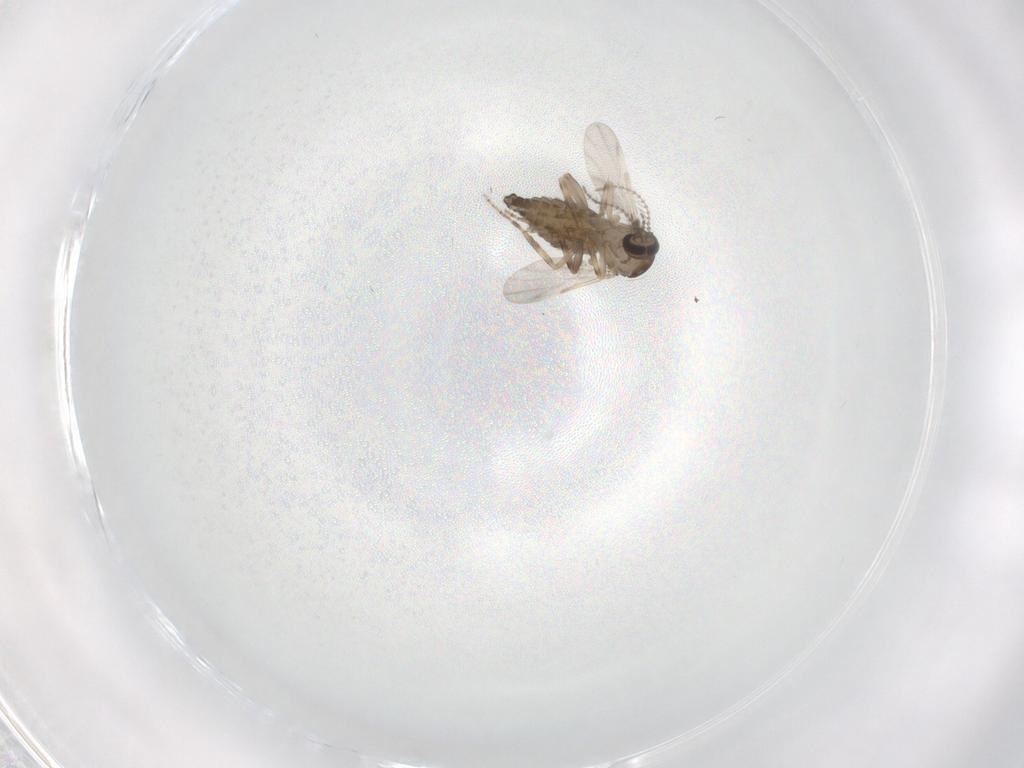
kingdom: Animalia
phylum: Arthropoda
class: Insecta
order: Diptera
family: Ceratopogonidae
